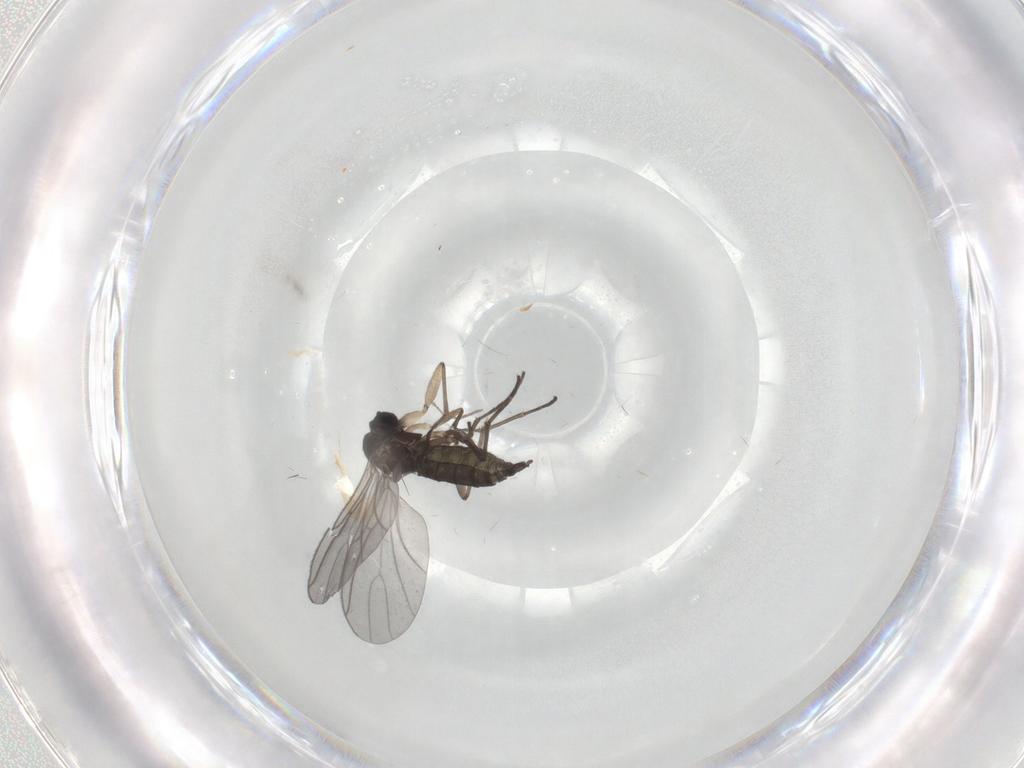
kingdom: Animalia
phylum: Arthropoda
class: Insecta
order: Diptera
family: Sciaridae
